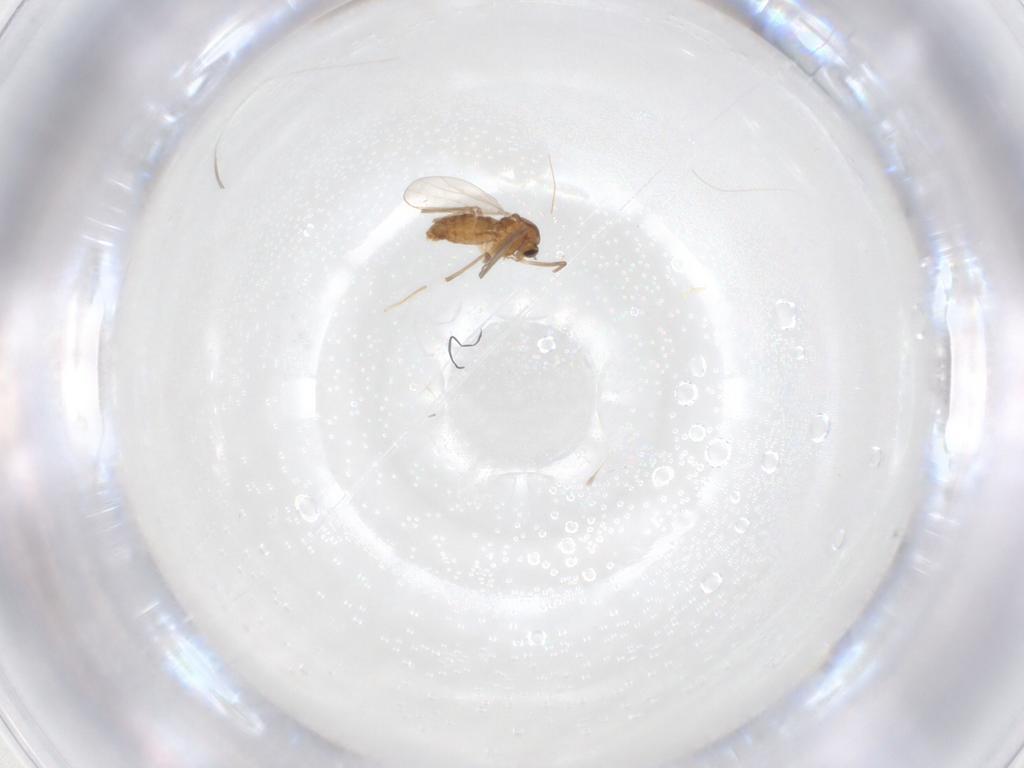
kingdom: Animalia
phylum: Arthropoda
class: Insecta
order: Diptera
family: Chironomidae
